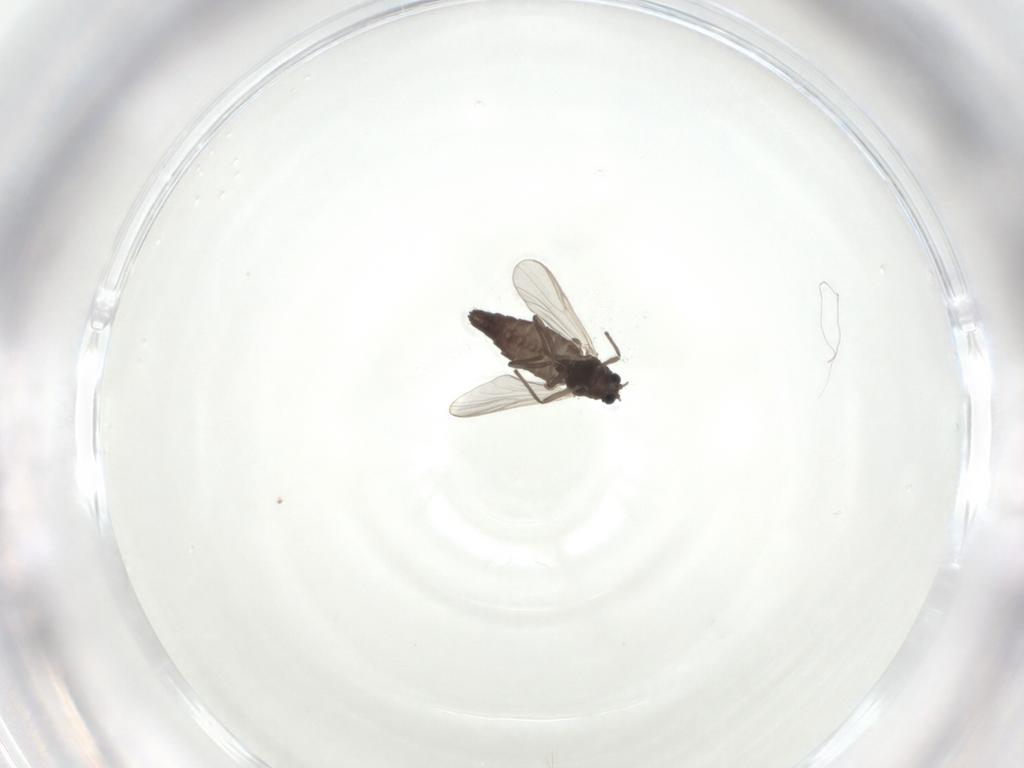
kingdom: Animalia
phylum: Arthropoda
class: Insecta
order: Diptera
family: Chironomidae
